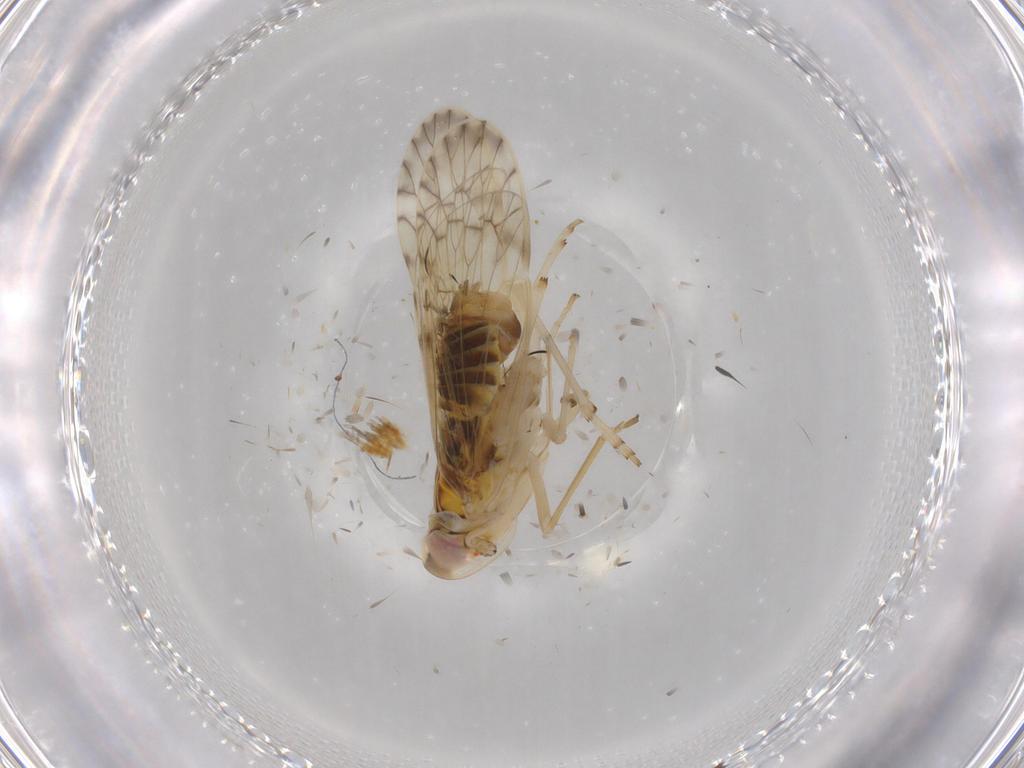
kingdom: Animalia
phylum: Arthropoda
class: Insecta
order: Hemiptera
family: Cicadellidae
